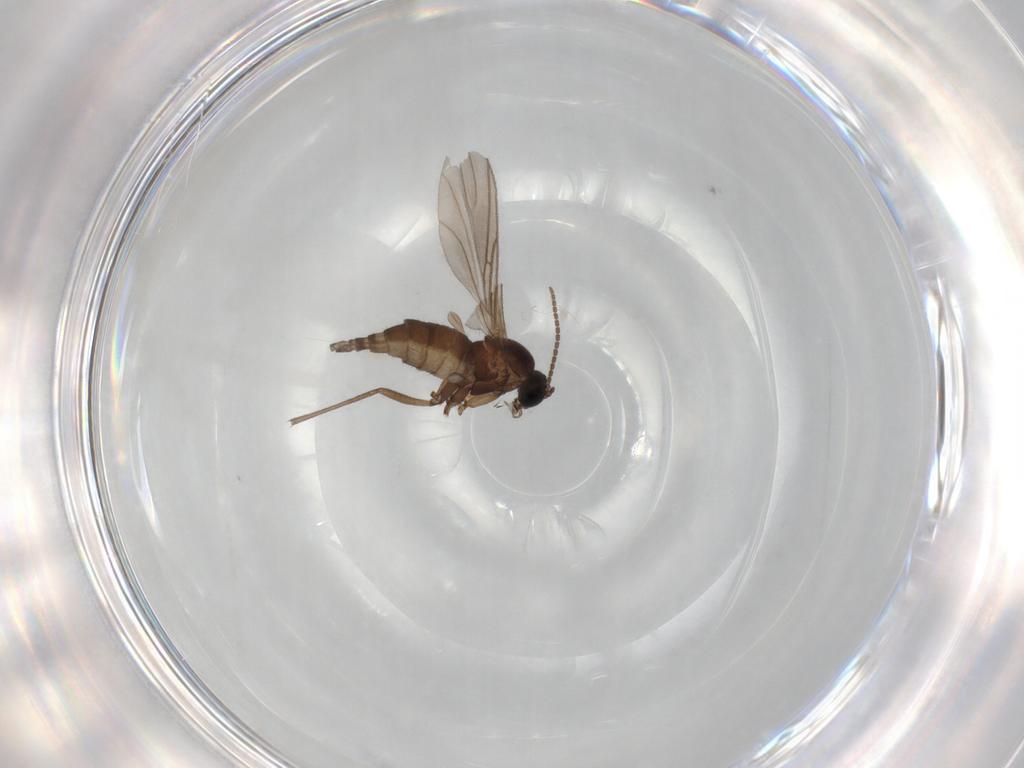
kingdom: Animalia
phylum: Arthropoda
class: Insecta
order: Diptera
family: Sciaridae
